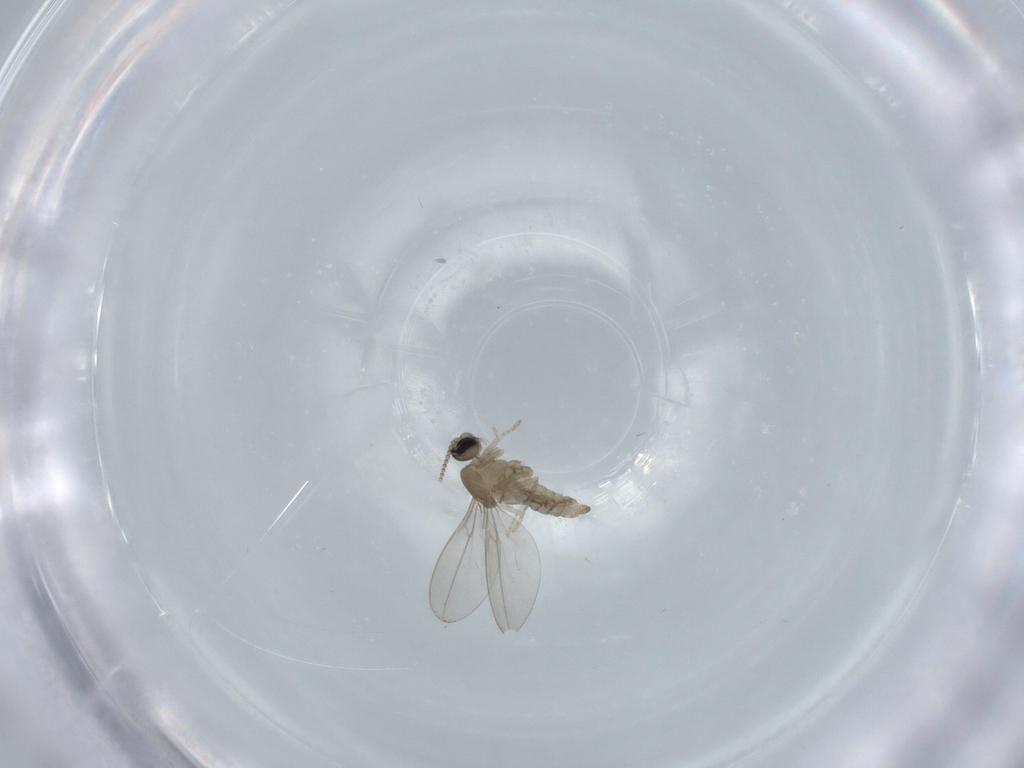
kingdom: Animalia
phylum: Arthropoda
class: Insecta
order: Diptera
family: Cecidomyiidae
